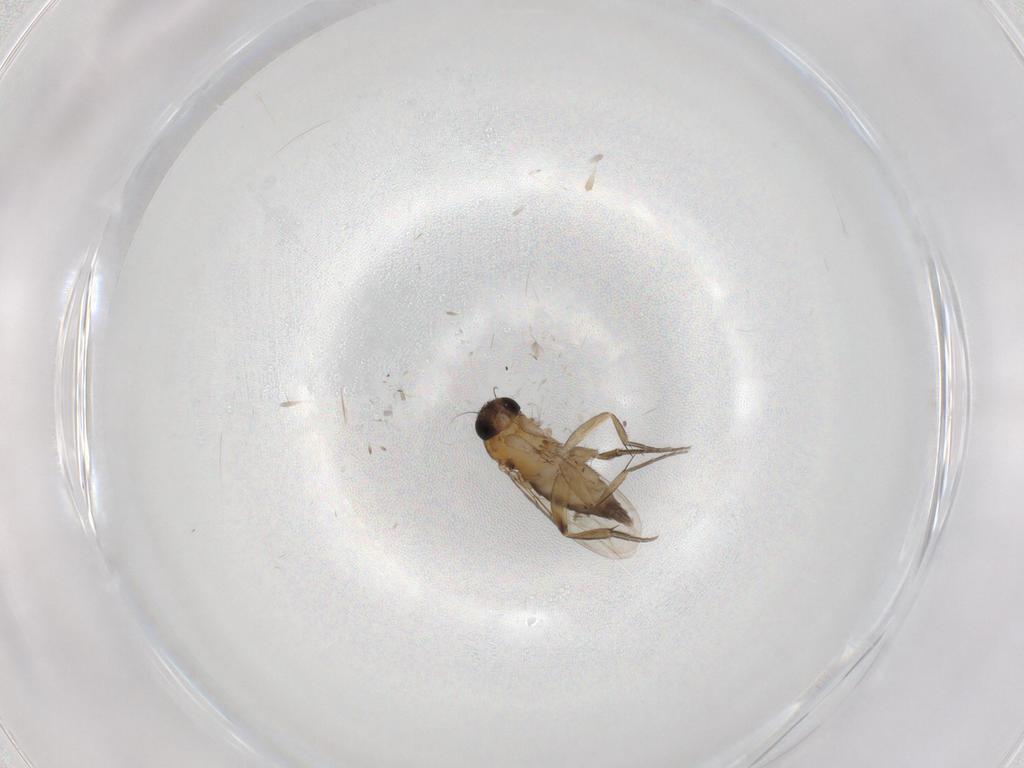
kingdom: Animalia
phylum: Arthropoda
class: Insecta
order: Diptera
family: Phoridae
